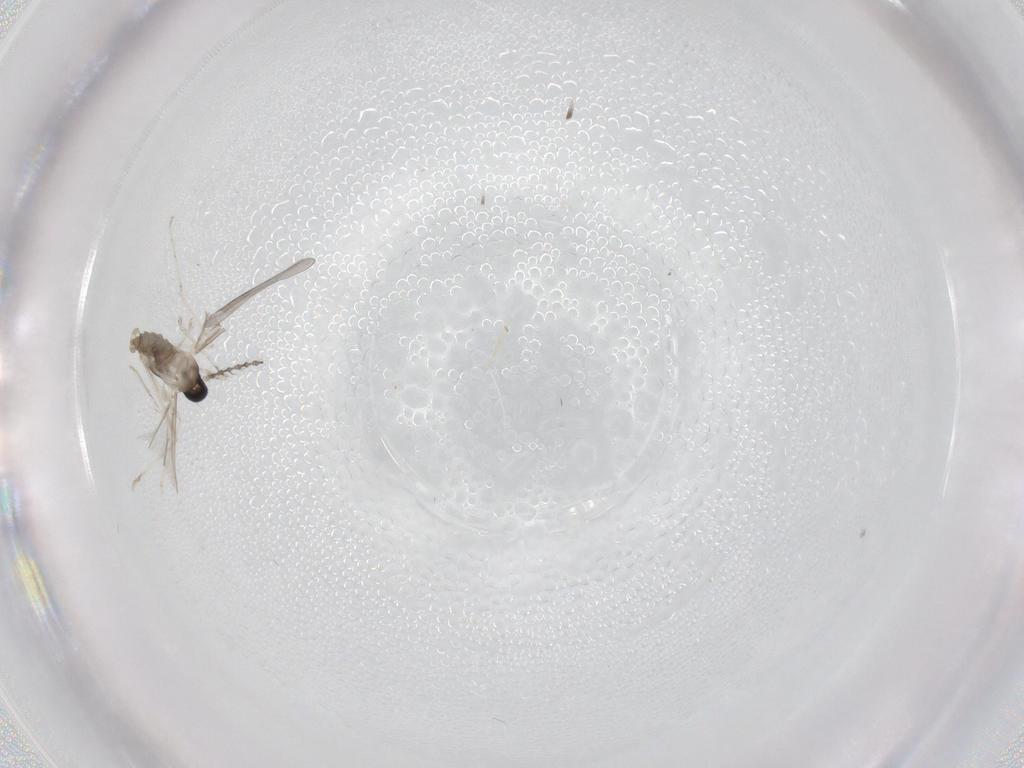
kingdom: Animalia
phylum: Arthropoda
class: Insecta
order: Diptera
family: Cecidomyiidae
